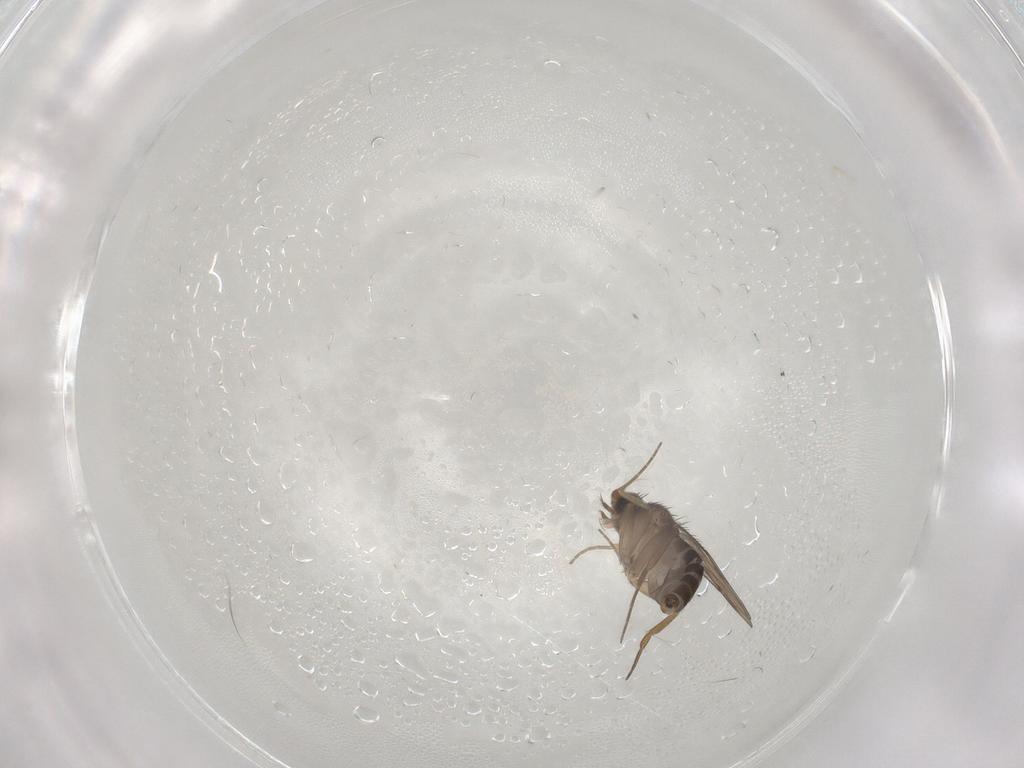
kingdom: Animalia
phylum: Arthropoda
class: Insecta
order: Diptera
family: Phoridae
